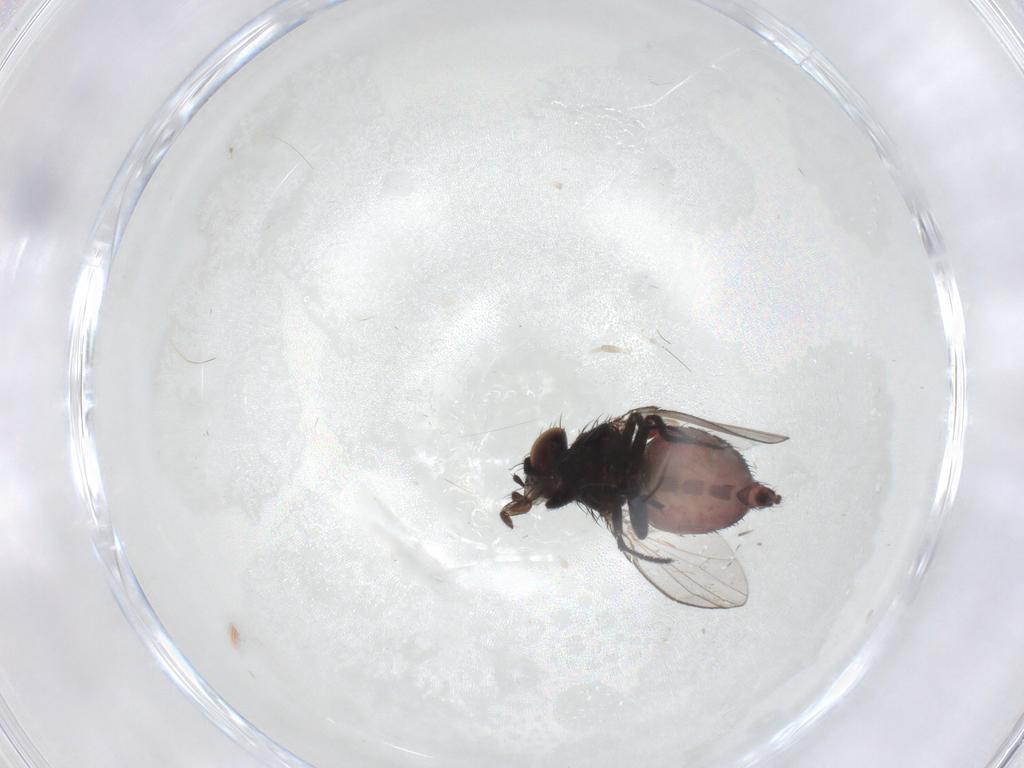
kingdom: Animalia
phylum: Arthropoda
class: Insecta
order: Diptera
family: Milichiidae
